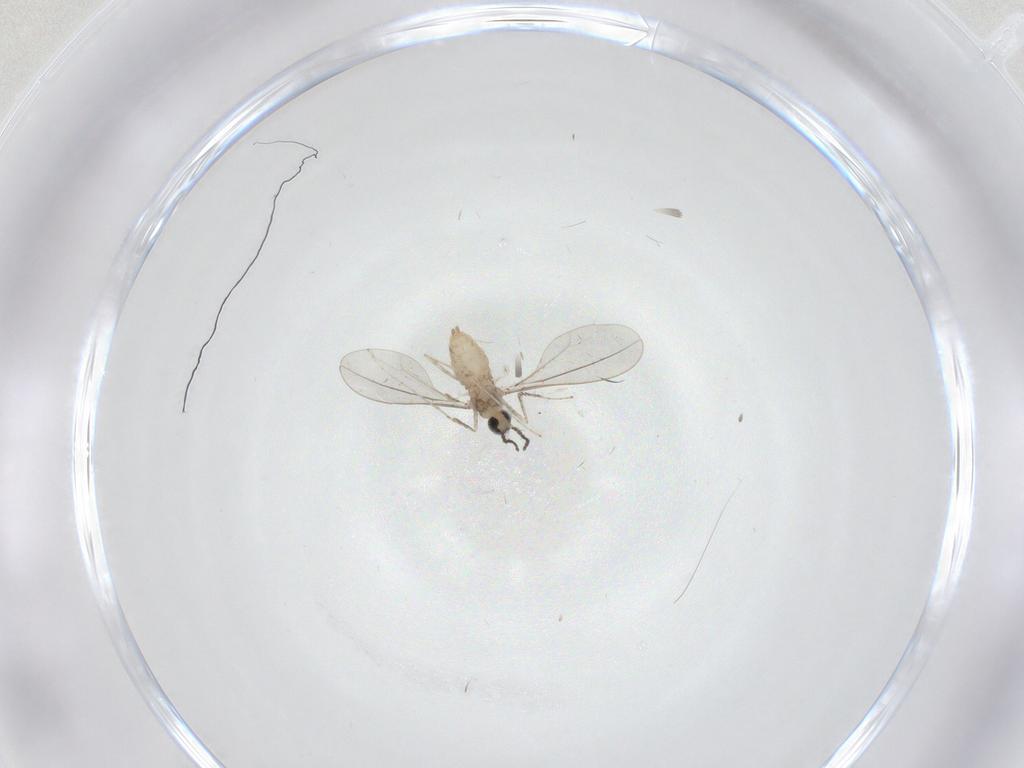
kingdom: Animalia
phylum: Arthropoda
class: Insecta
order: Diptera
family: Cecidomyiidae
